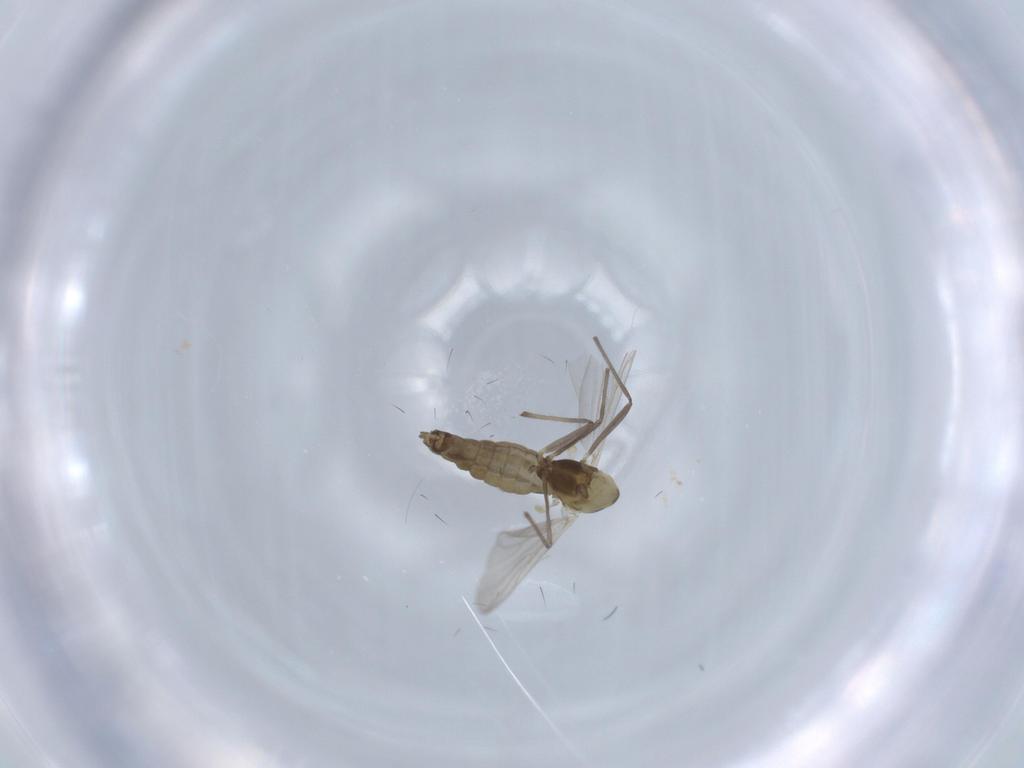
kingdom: Animalia
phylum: Arthropoda
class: Insecta
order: Diptera
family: Chironomidae
